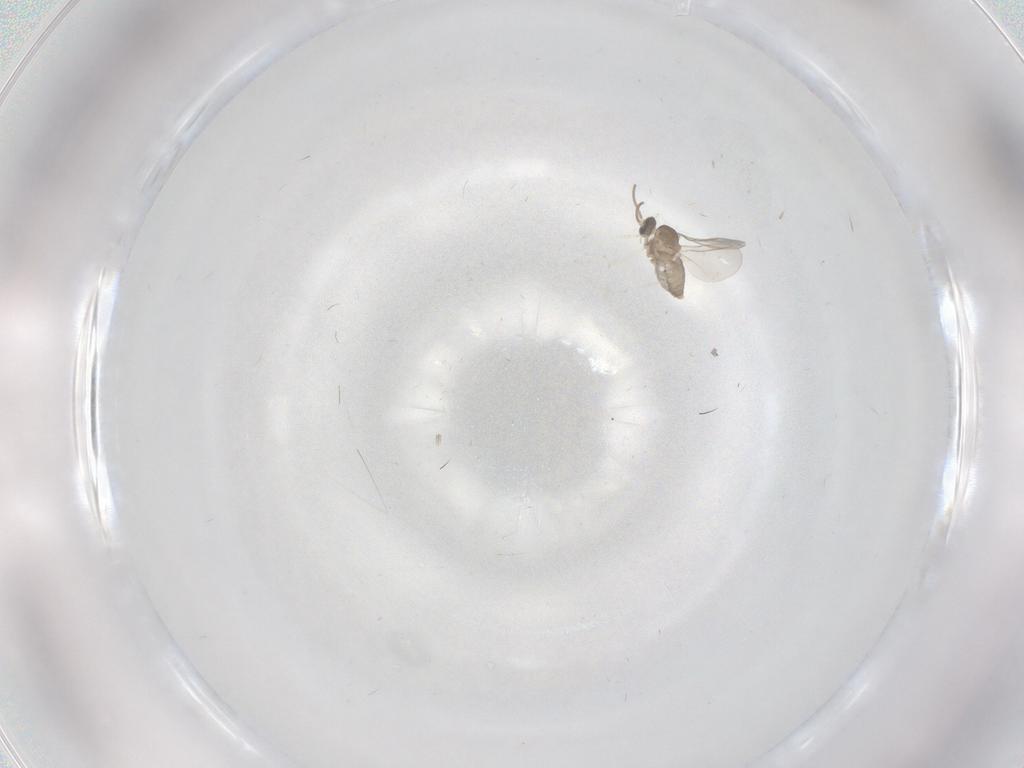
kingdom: Animalia
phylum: Arthropoda
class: Insecta
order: Diptera
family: Cecidomyiidae
